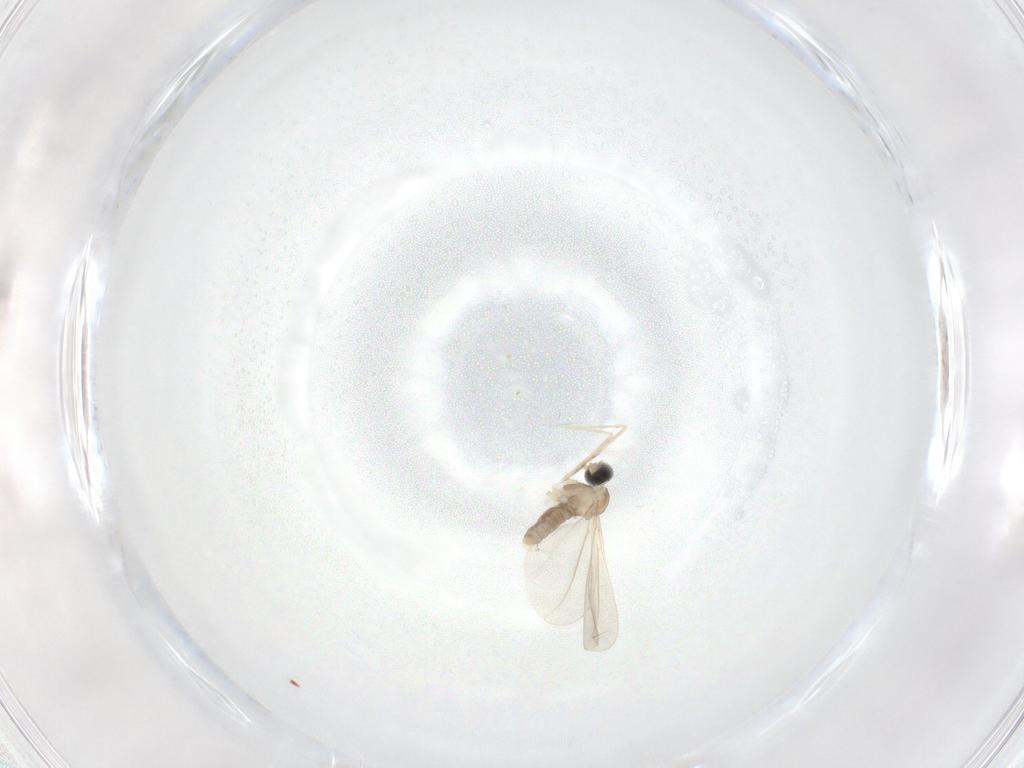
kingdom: Animalia
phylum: Arthropoda
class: Insecta
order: Diptera
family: Cecidomyiidae
